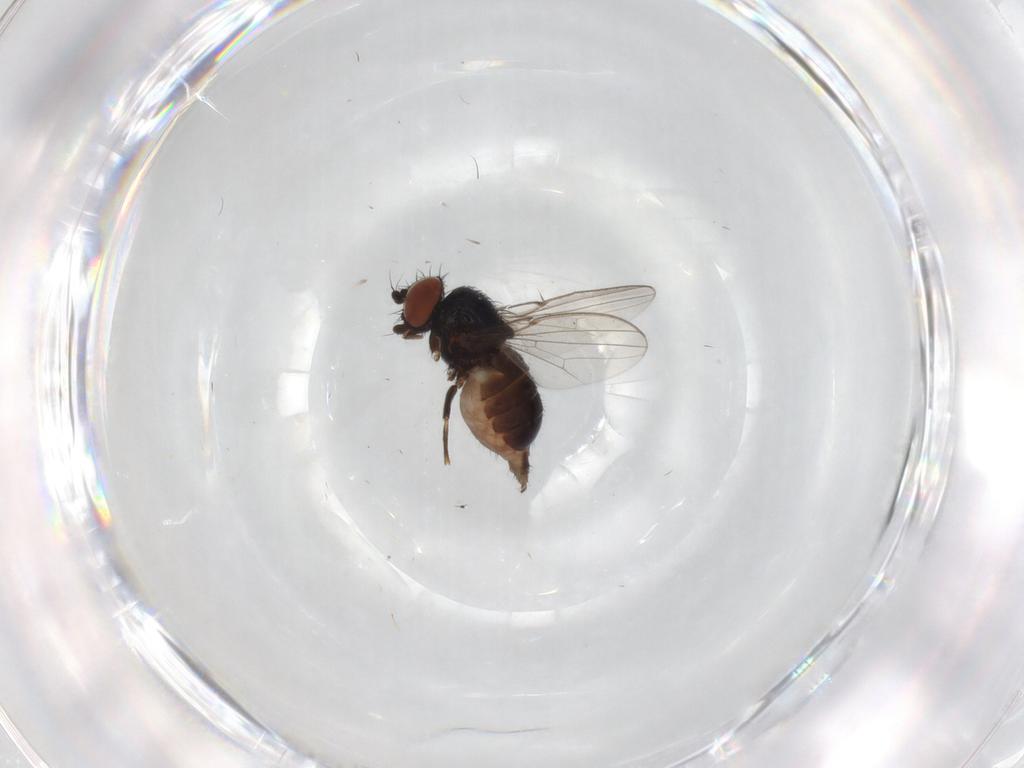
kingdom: Animalia
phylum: Arthropoda
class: Insecta
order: Diptera
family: Milichiidae
